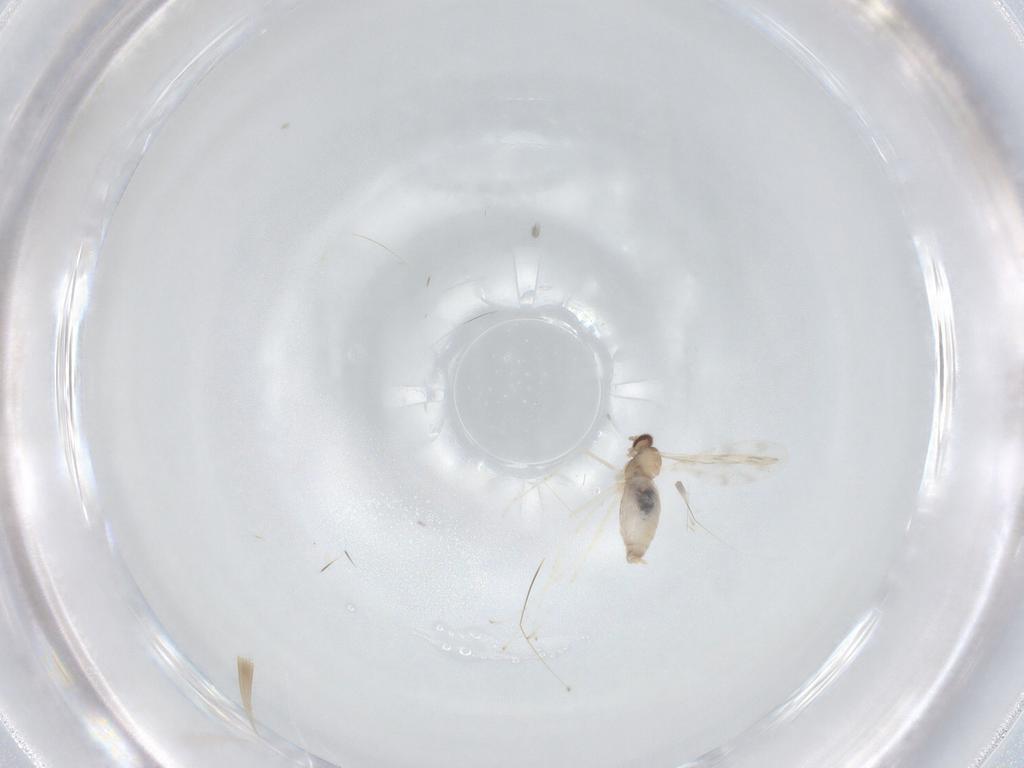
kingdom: Animalia
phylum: Arthropoda
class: Insecta
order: Diptera
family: Cecidomyiidae
